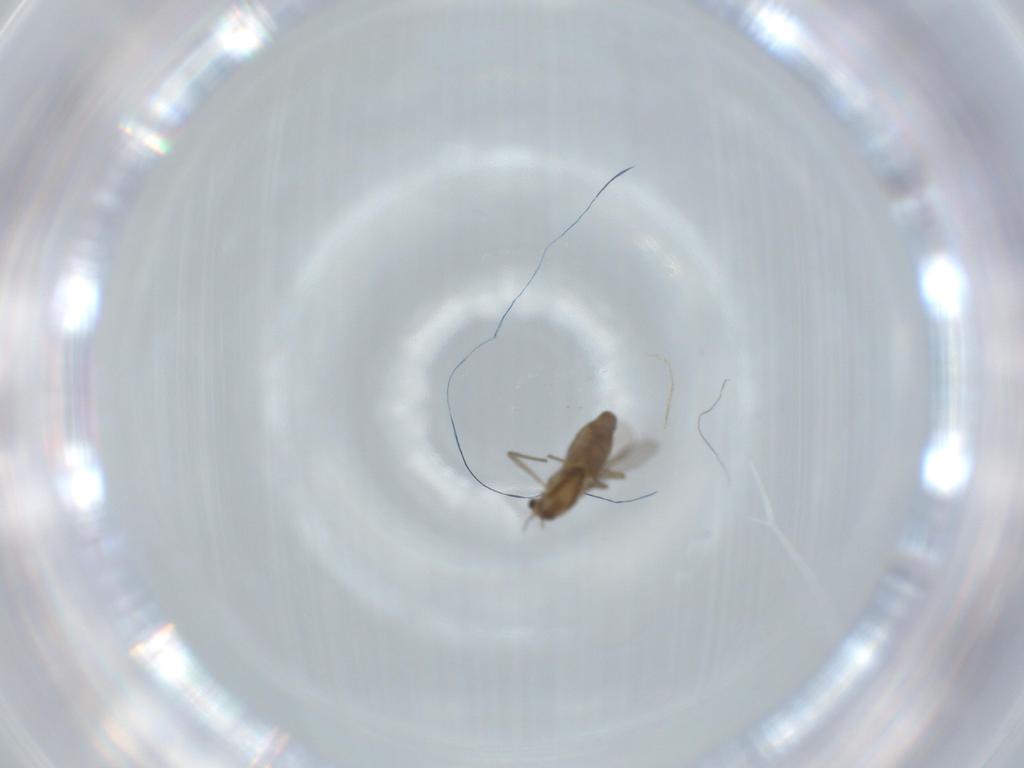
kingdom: Animalia
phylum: Arthropoda
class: Insecta
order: Diptera
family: Chironomidae
